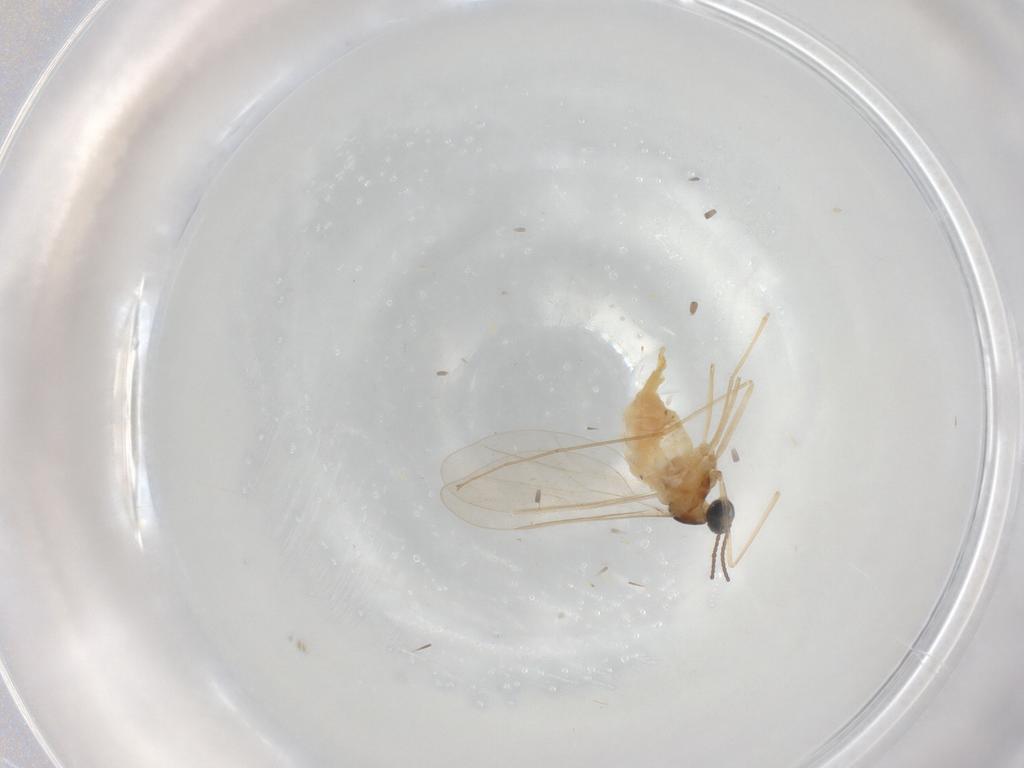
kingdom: Animalia
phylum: Arthropoda
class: Insecta
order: Diptera
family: Cecidomyiidae
